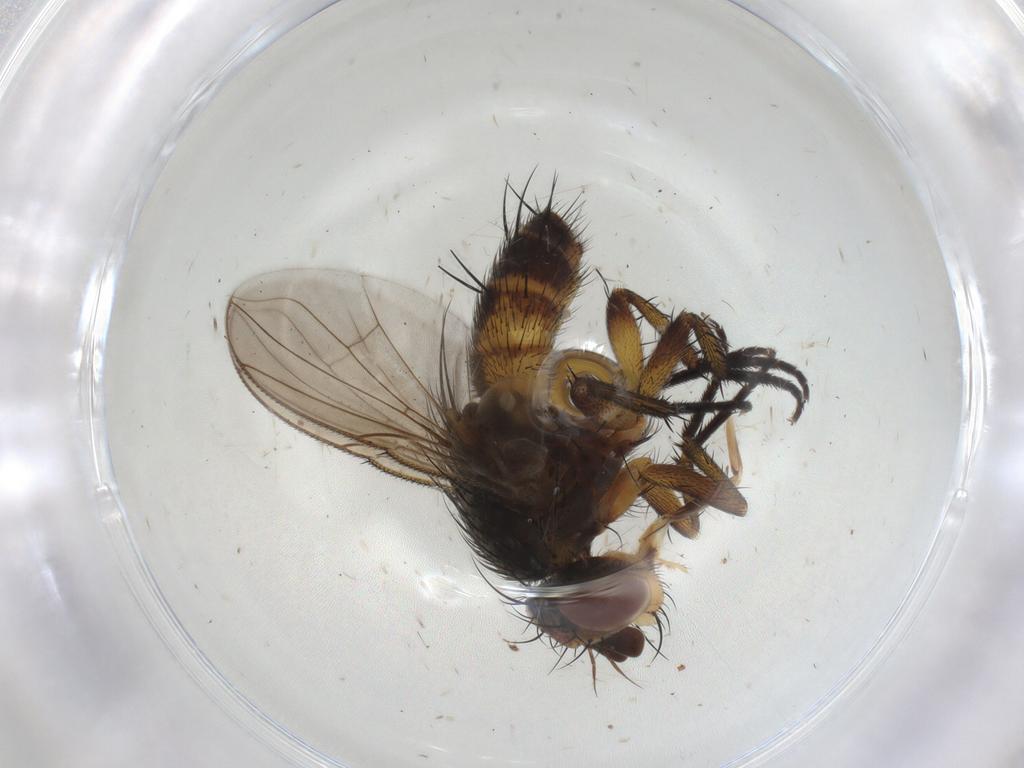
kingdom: Animalia
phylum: Arthropoda
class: Insecta
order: Diptera
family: Tachinidae
